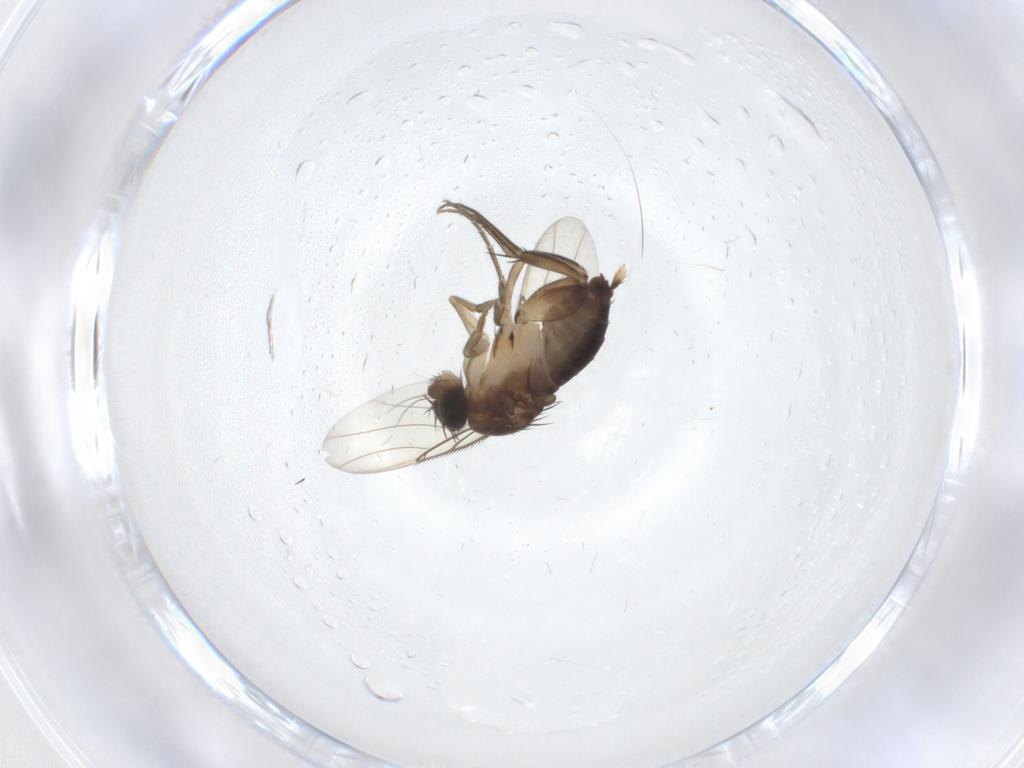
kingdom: Animalia
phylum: Arthropoda
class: Insecta
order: Diptera
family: Phoridae
